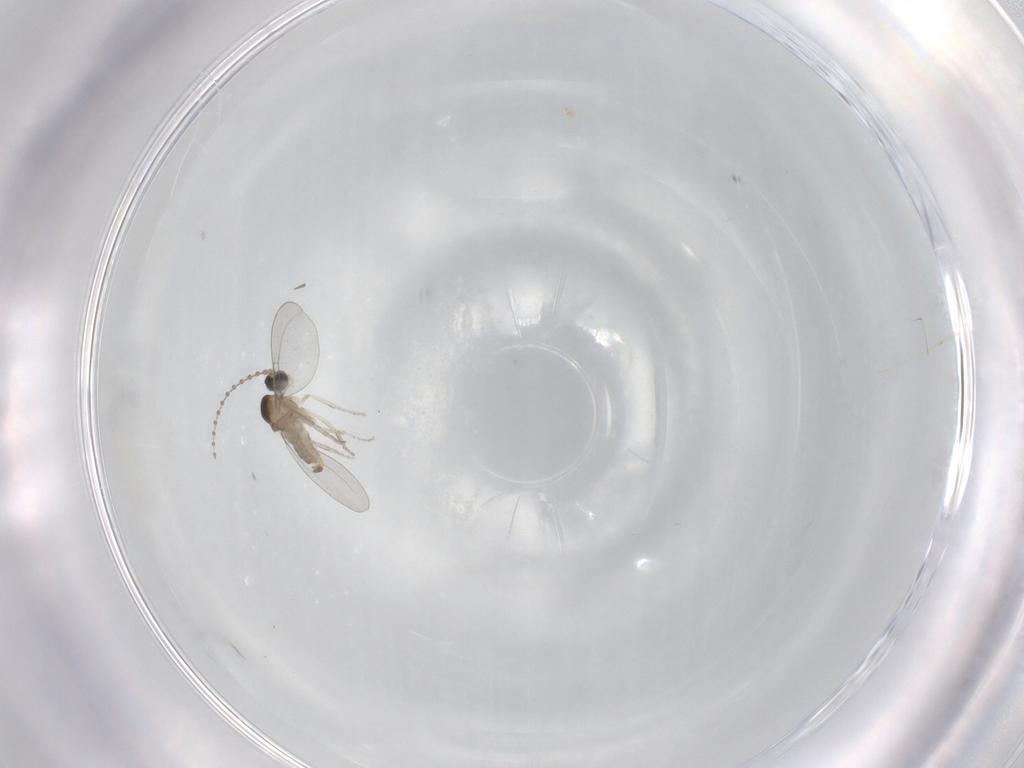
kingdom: Animalia
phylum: Arthropoda
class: Insecta
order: Diptera
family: Cecidomyiidae
